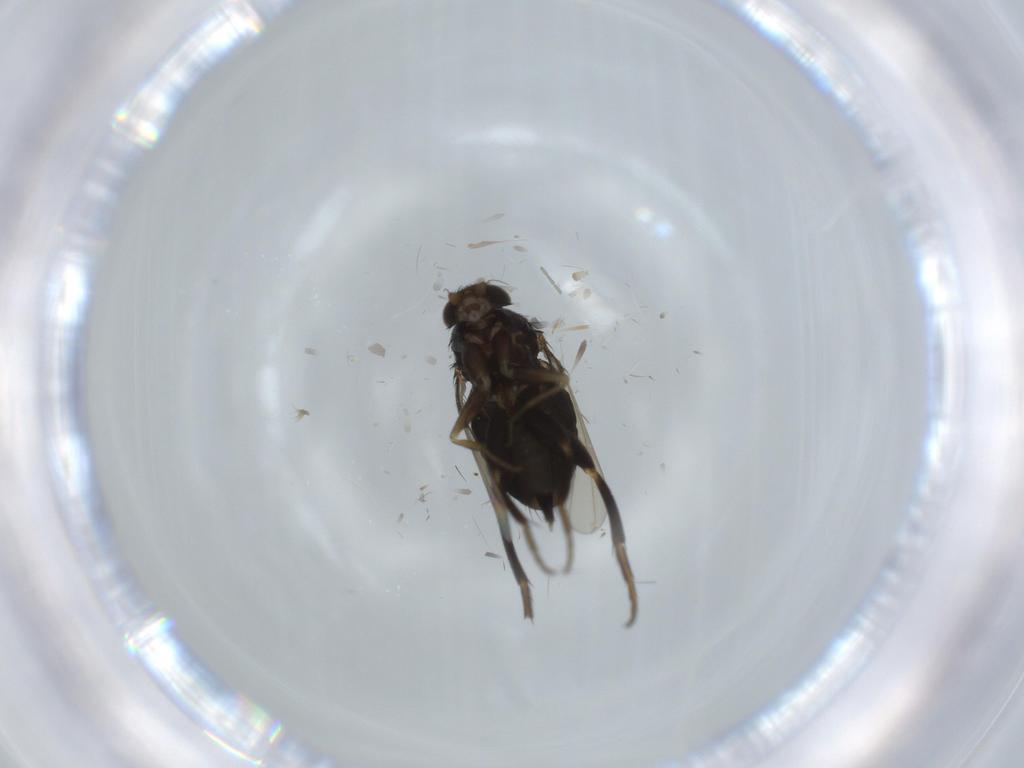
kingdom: Animalia
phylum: Arthropoda
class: Insecta
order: Diptera
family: Phoridae
